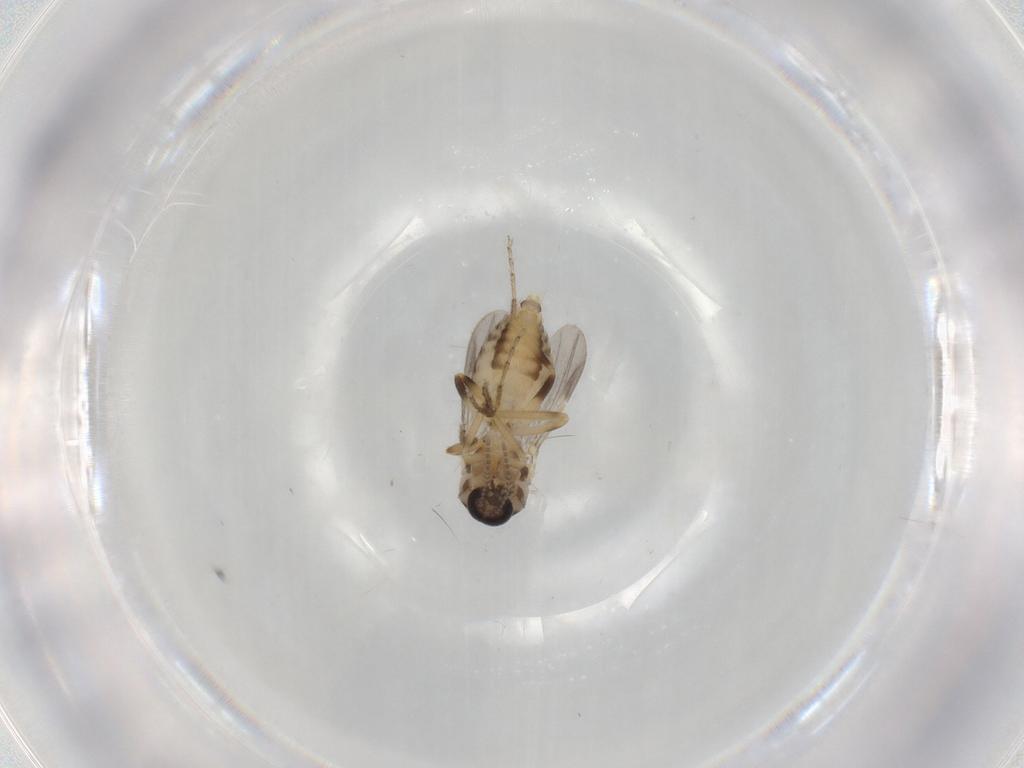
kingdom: Animalia
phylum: Arthropoda
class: Insecta
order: Diptera
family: Ceratopogonidae
